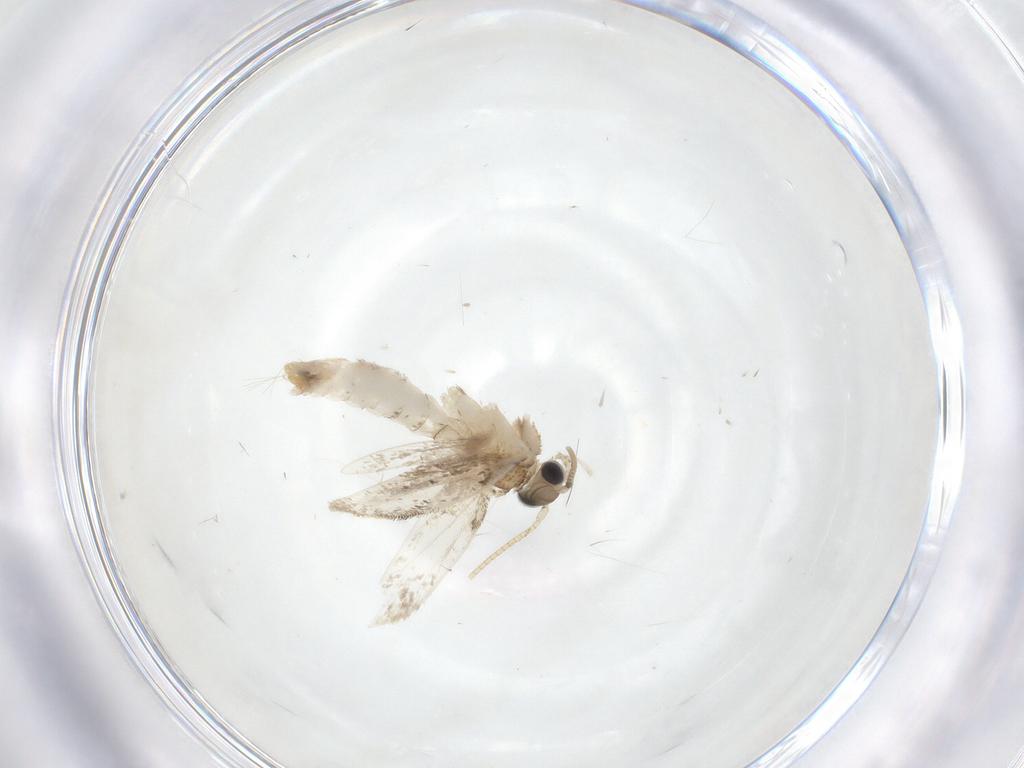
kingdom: Animalia
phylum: Arthropoda
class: Insecta
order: Lepidoptera
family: Dryadaulidae
